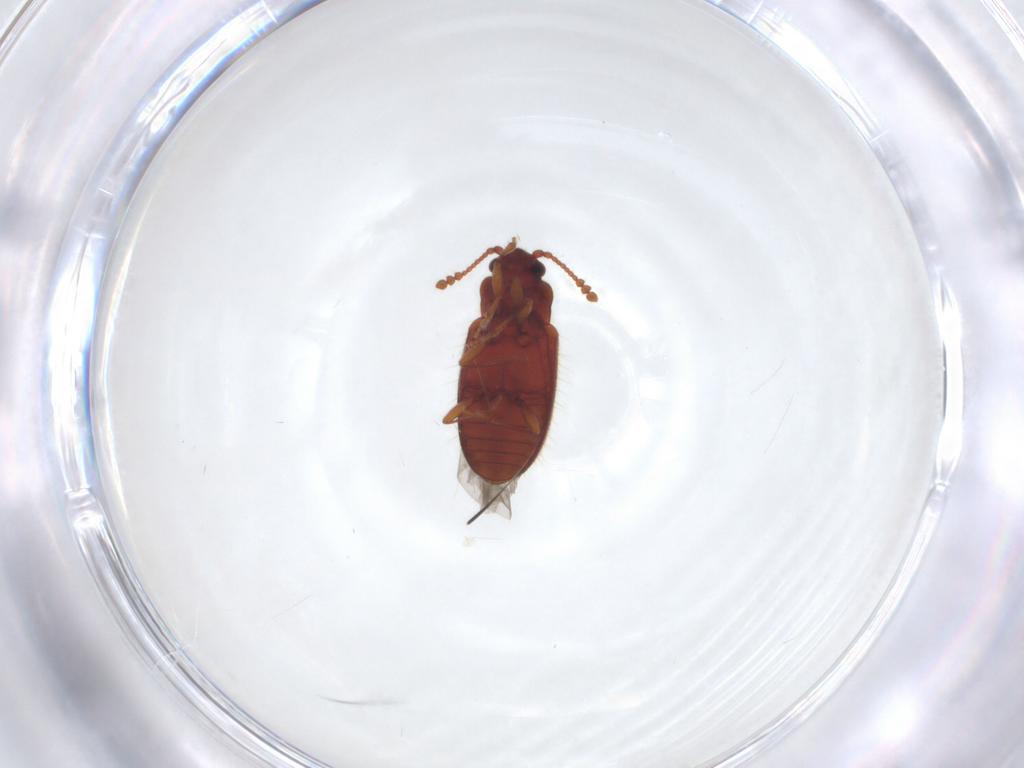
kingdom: Animalia
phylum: Arthropoda
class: Insecta
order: Coleoptera
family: Cryptophagidae
